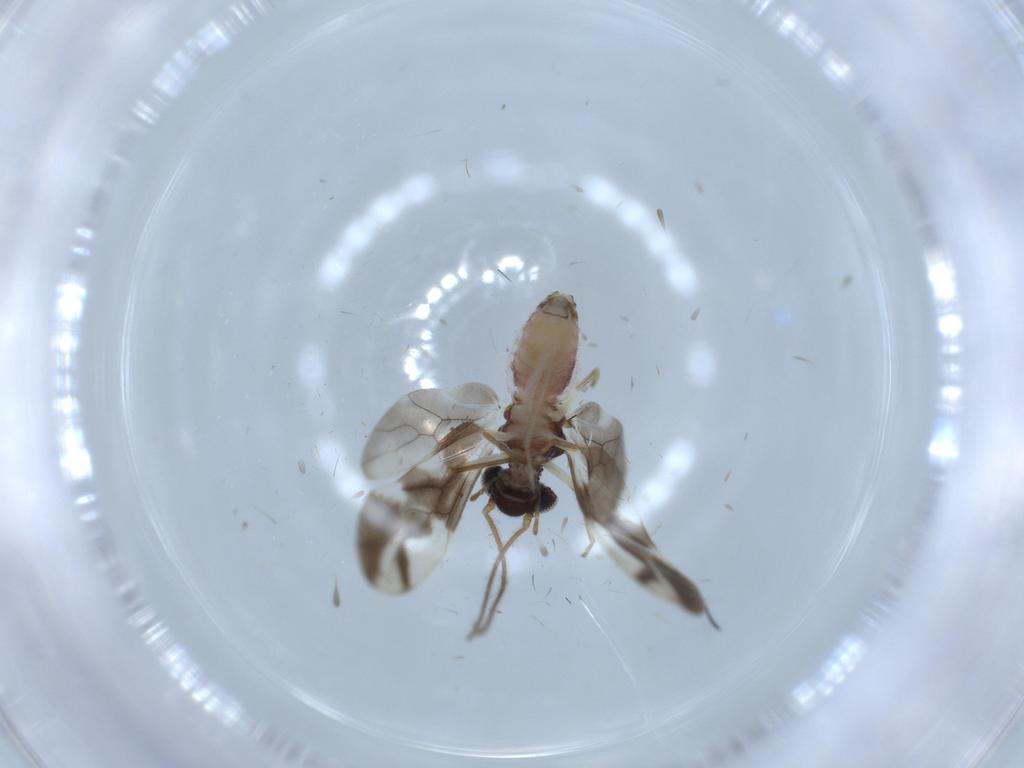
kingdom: Animalia
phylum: Arthropoda
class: Insecta
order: Psocodea
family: Caeciliusidae
